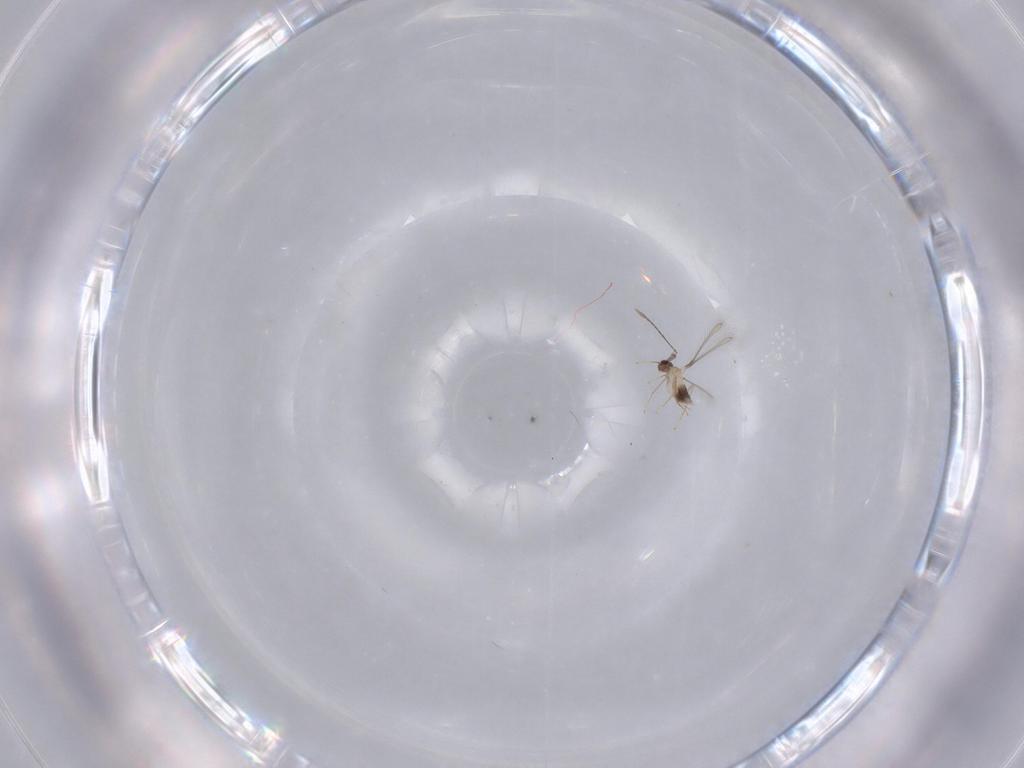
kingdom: Animalia
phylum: Arthropoda
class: Insecta
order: Hymenoptera
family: Mymaridae
